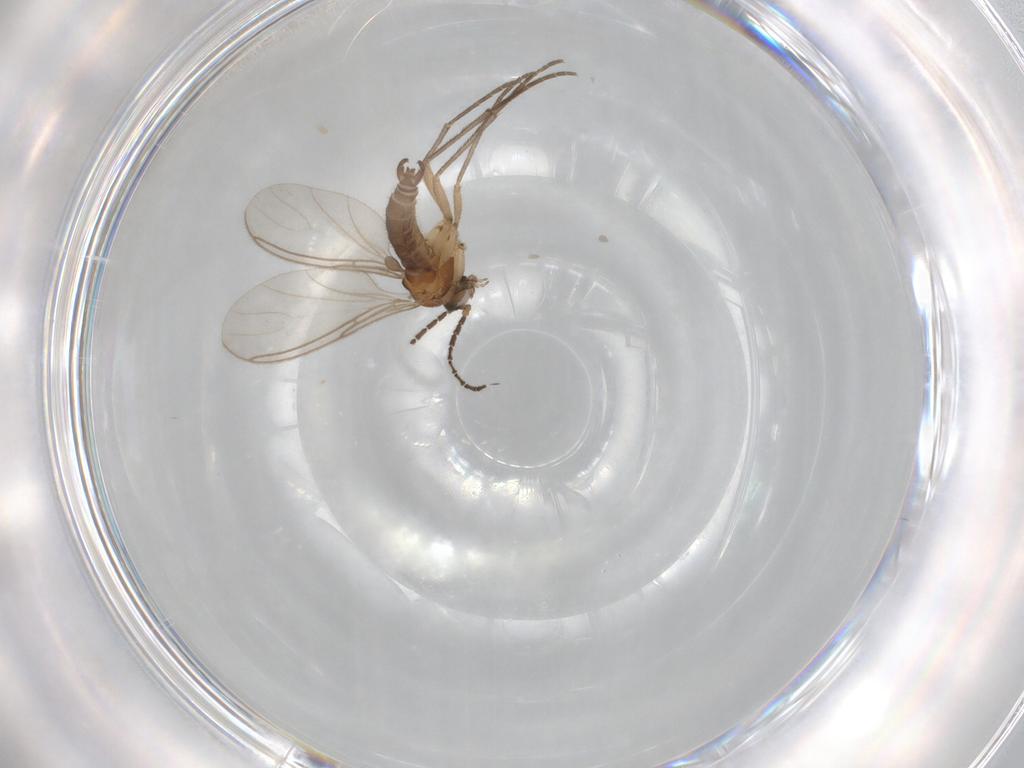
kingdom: Animalia
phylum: Arthropoda
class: Insecta
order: Diptera
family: Sciaridae
